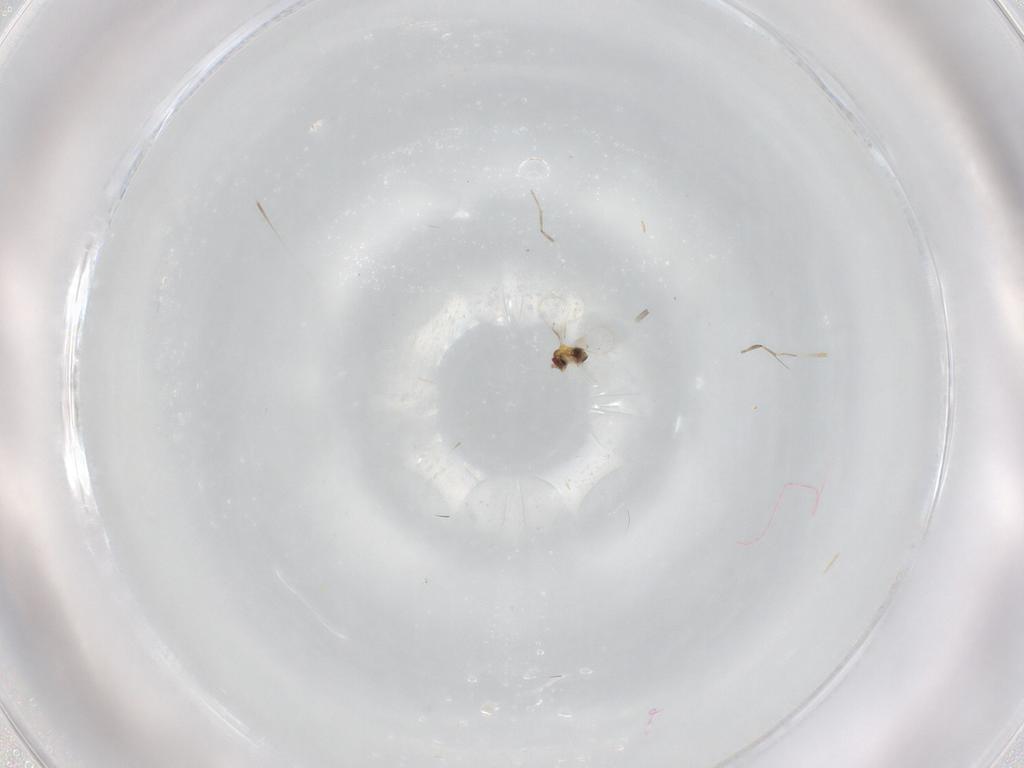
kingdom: Animalia
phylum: Arthropoda
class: Insecta
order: Hymenoptera
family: Trichogrammatidae
